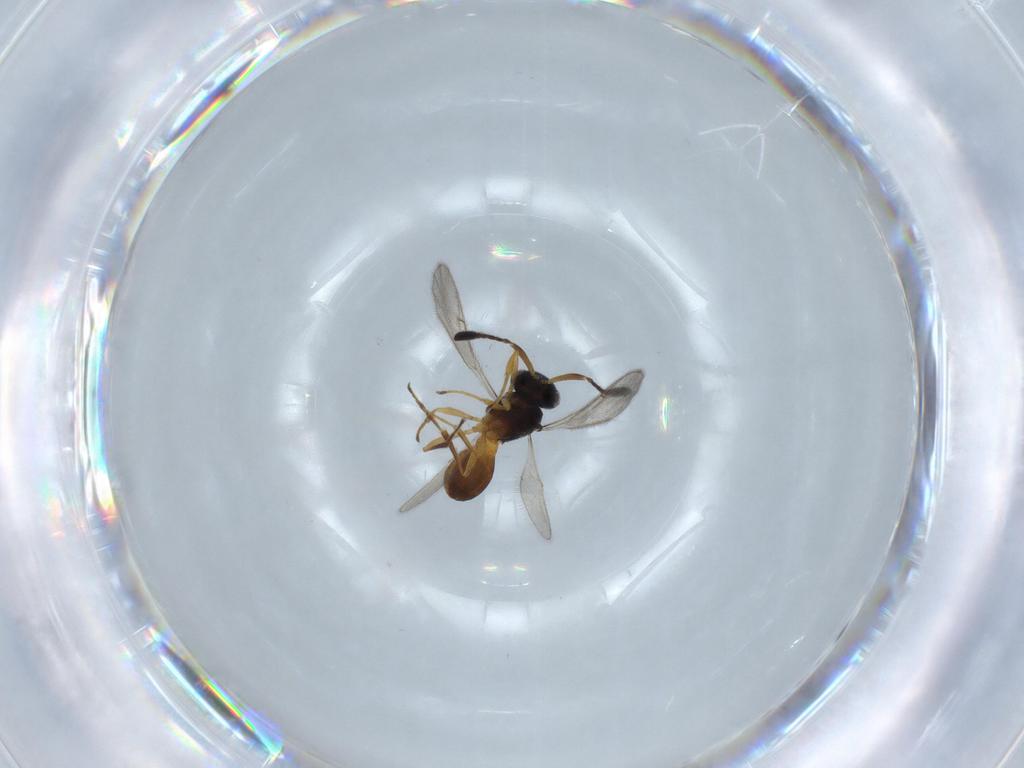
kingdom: Animalia
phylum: Arthropoda
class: Insecta
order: Hymenoptera
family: Scelionidae
